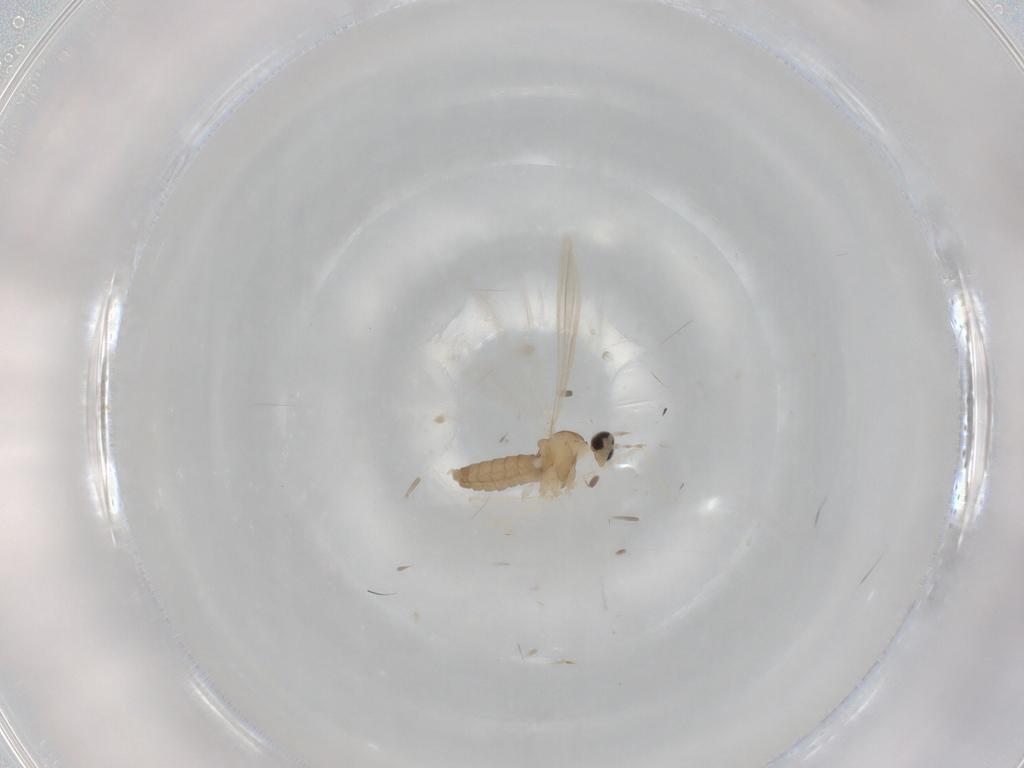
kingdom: Animalia
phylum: Arthropoda
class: Insecta
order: Diptera
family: Cecidomyiidae
